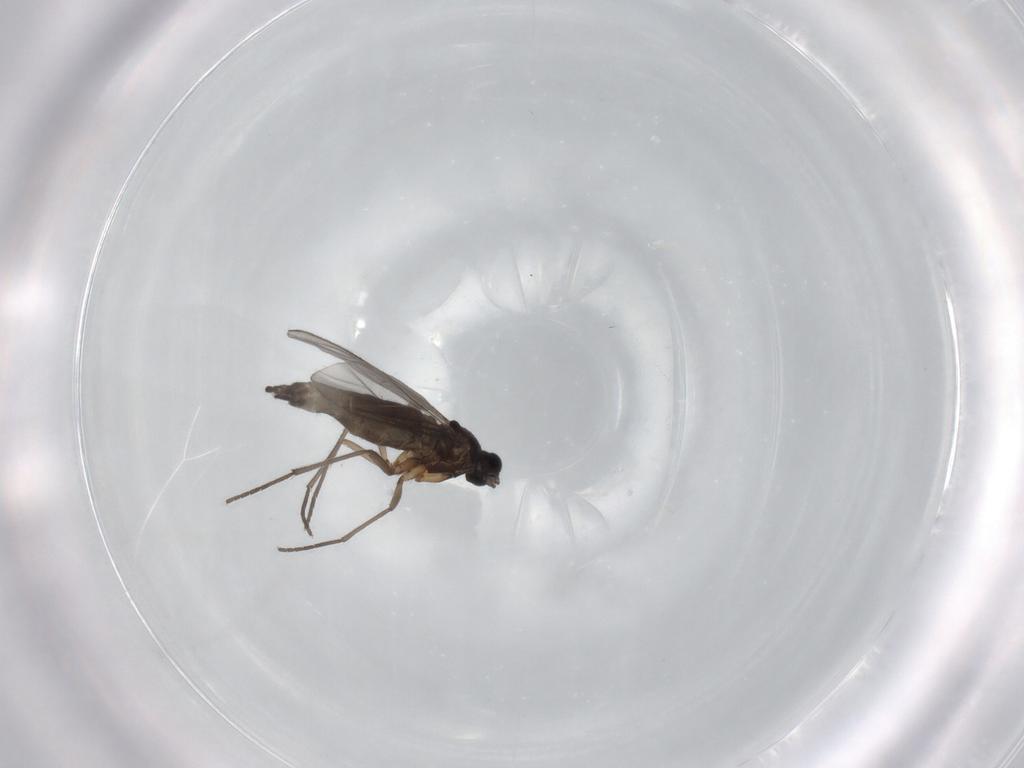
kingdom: Animalia
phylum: Arthropoda
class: Insecta
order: Diptera
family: Sciaridae
